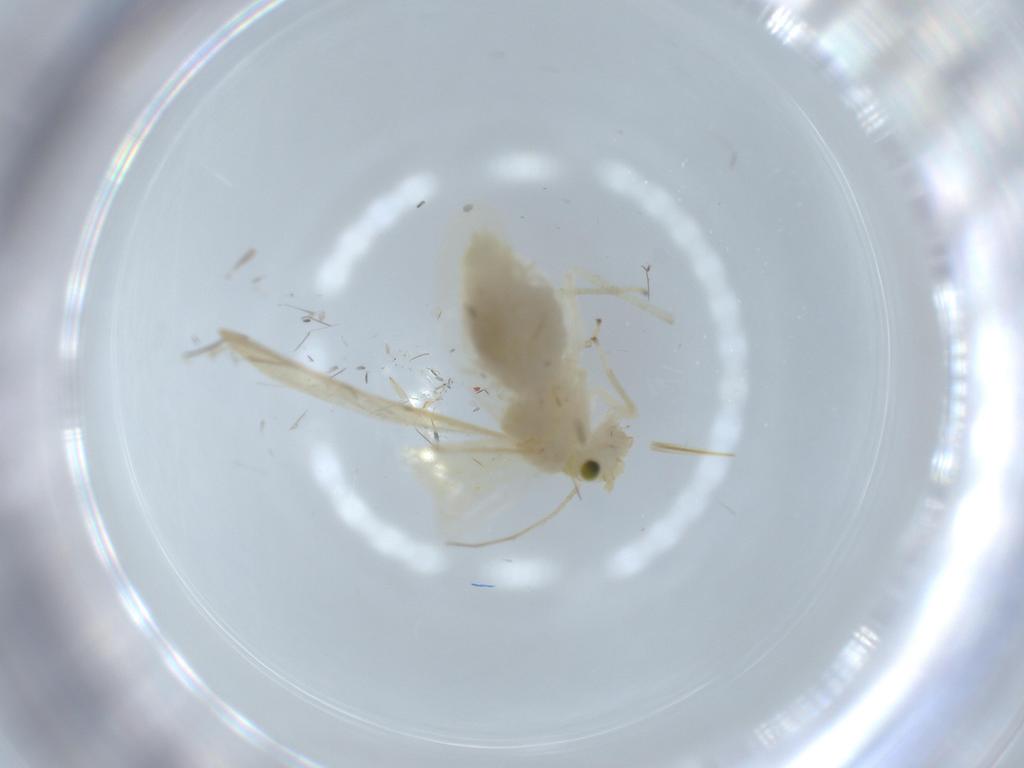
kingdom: Animalia
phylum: Arthropoda
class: Insecta
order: Psocodea
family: Caeciliusidae
